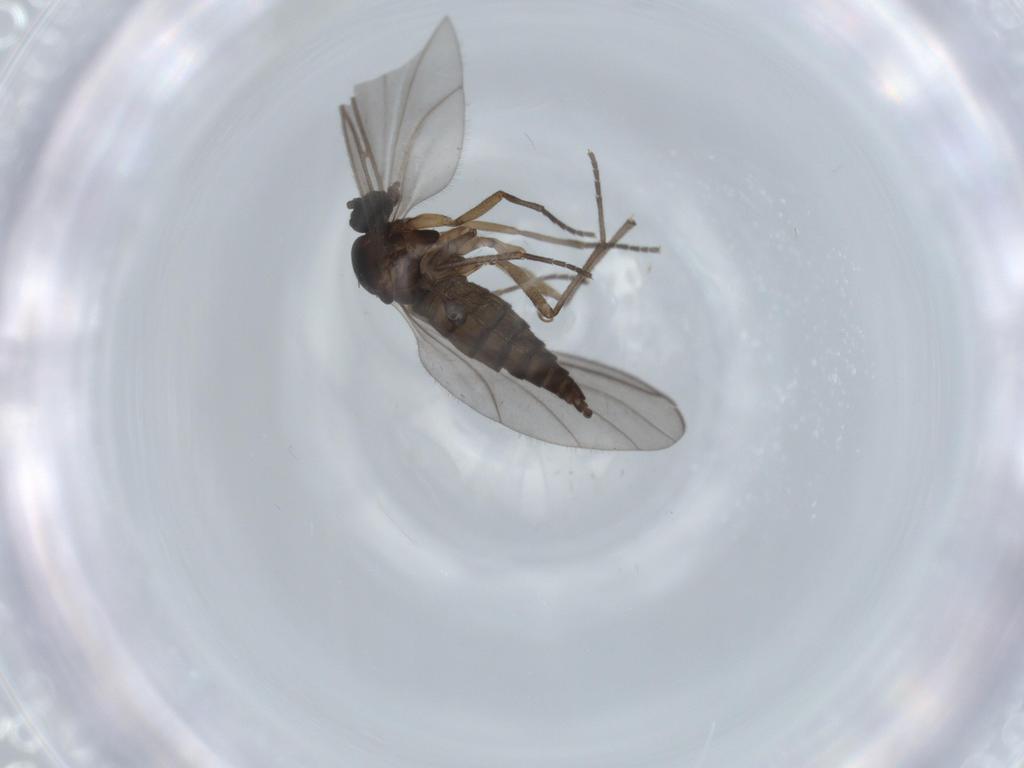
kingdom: Animalia
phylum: Arthropoda
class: Insecta
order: Diptera
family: Sciaridae
